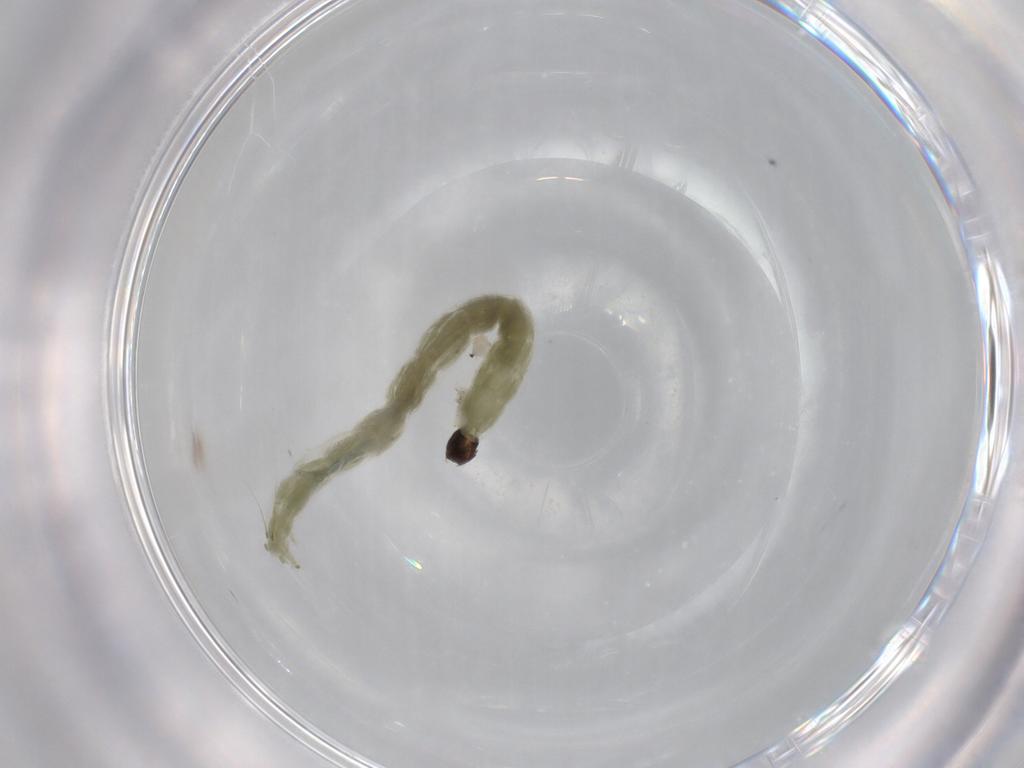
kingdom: Animalia
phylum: Arthropoda
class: Insecta
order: Diptera
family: Chironomidae
